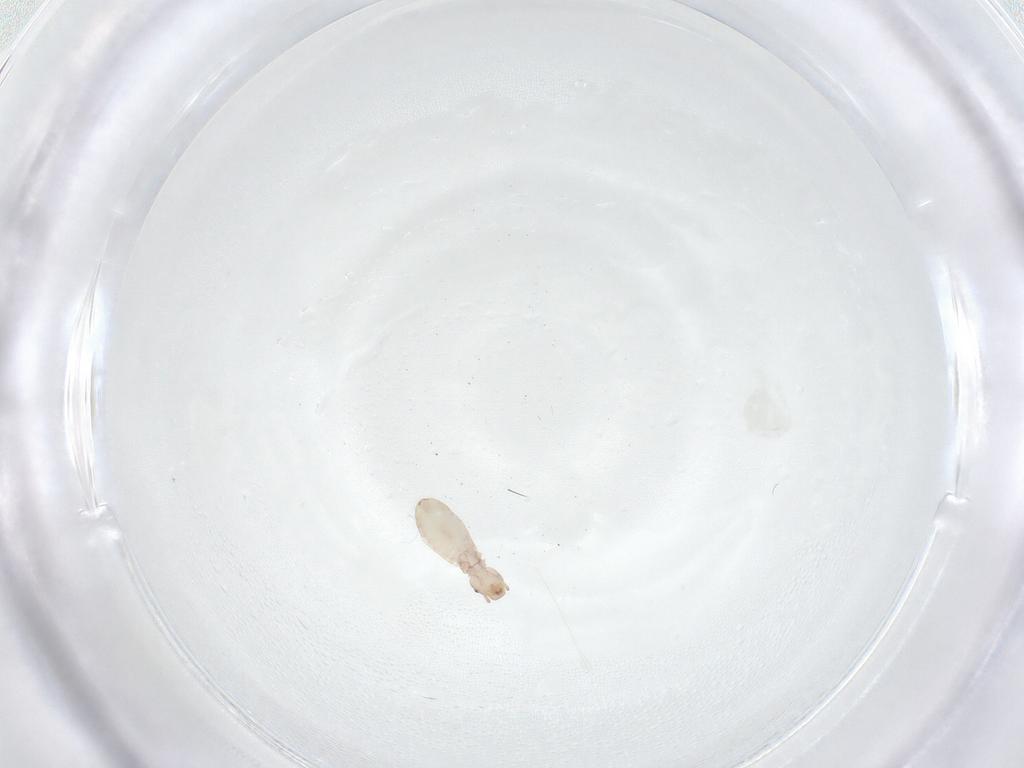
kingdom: Animalia
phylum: Arthropoda
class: Insecta
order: Psocodea
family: Liposcelididae
